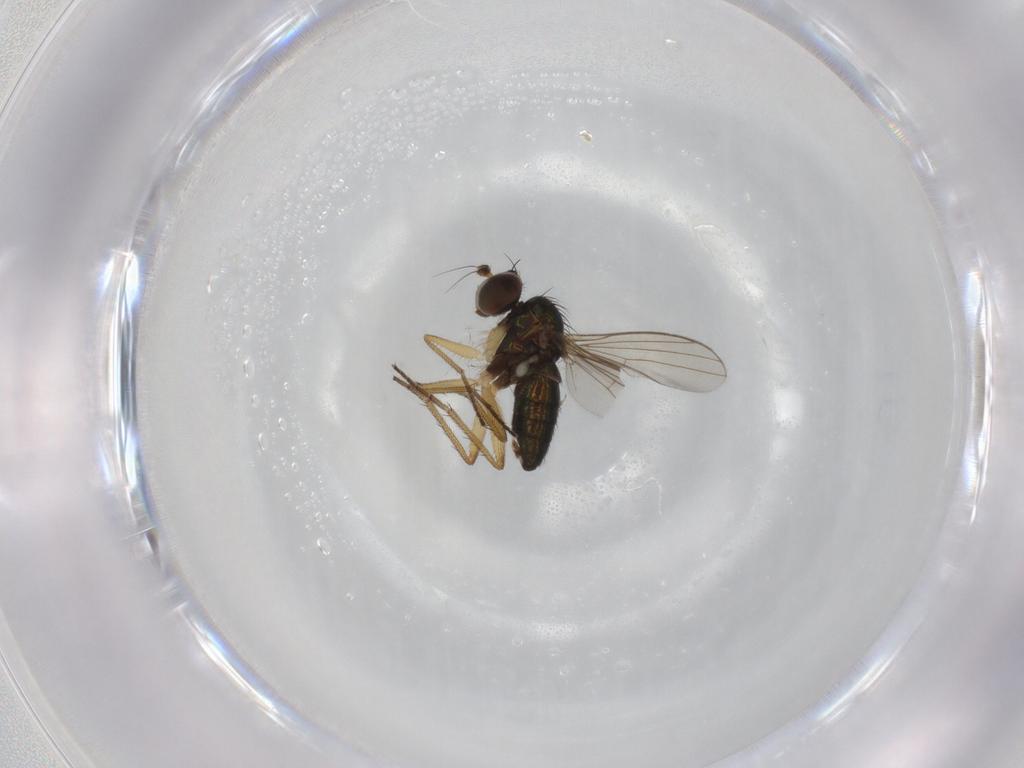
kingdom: Animalia
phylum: Arthropoda
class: Insecta
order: Diptera
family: Dolichopodidae
